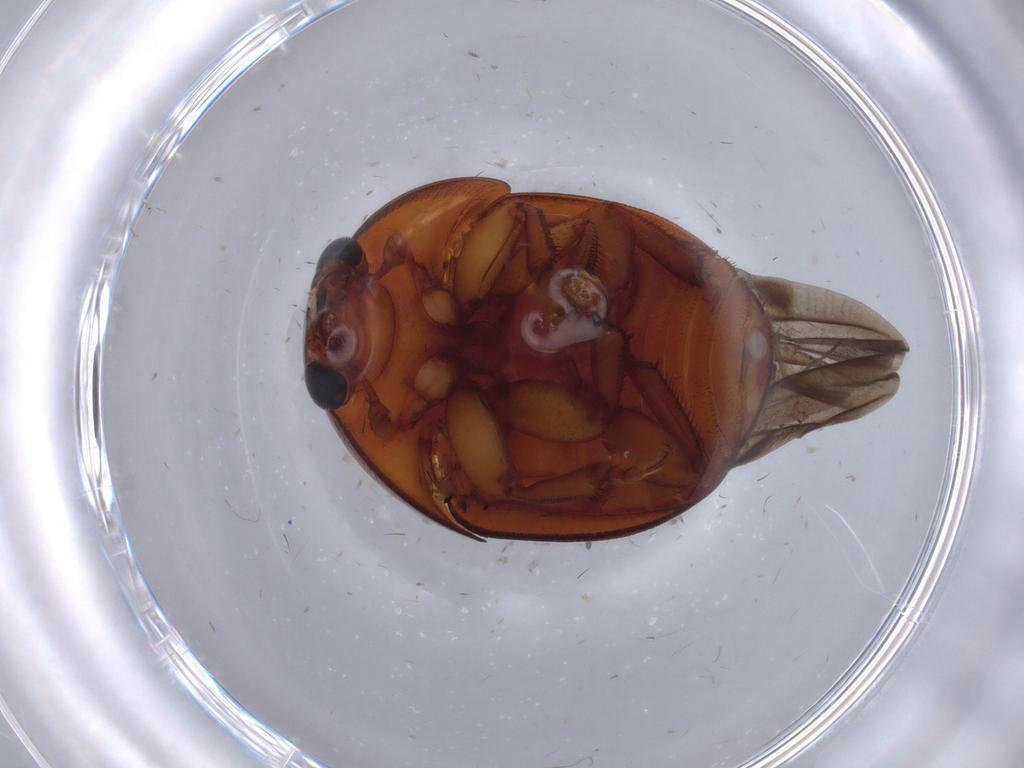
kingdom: Animalia
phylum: Arthropoda
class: Insecta
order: Coleoptera
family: Nitidulidae
